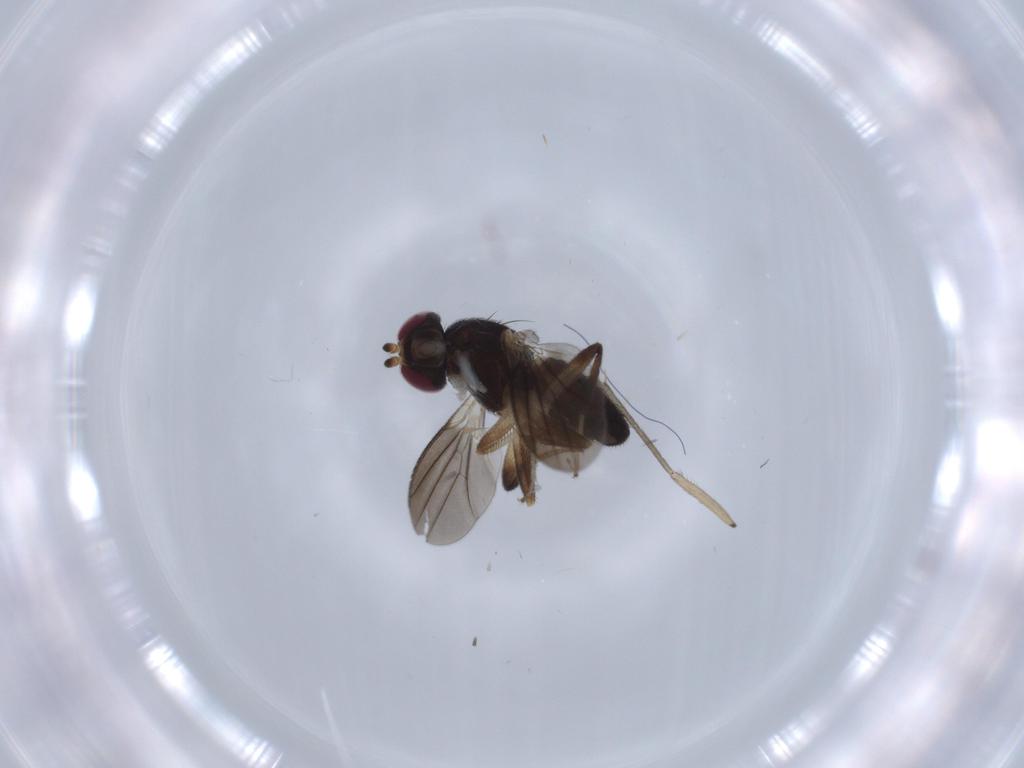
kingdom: Animalia
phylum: Arthropoda
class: Insecta
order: Diptera
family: Clusiidae
